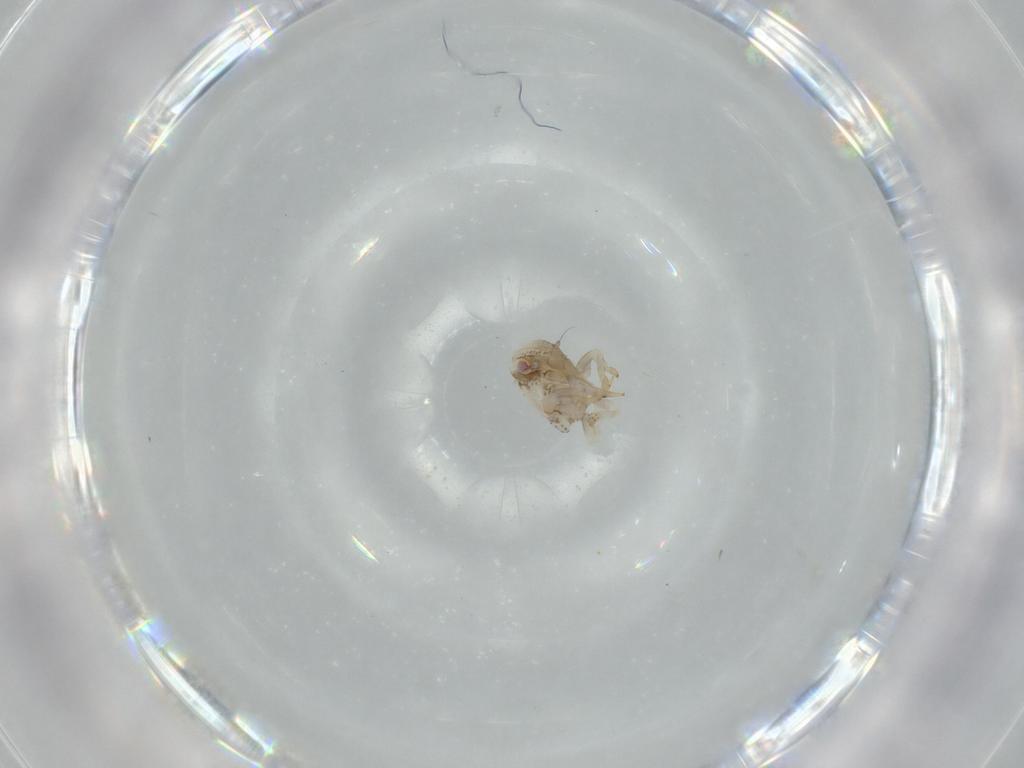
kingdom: Animalia
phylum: Arthropoda
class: Insecta
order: Hemiptera
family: Acanaloniidae
